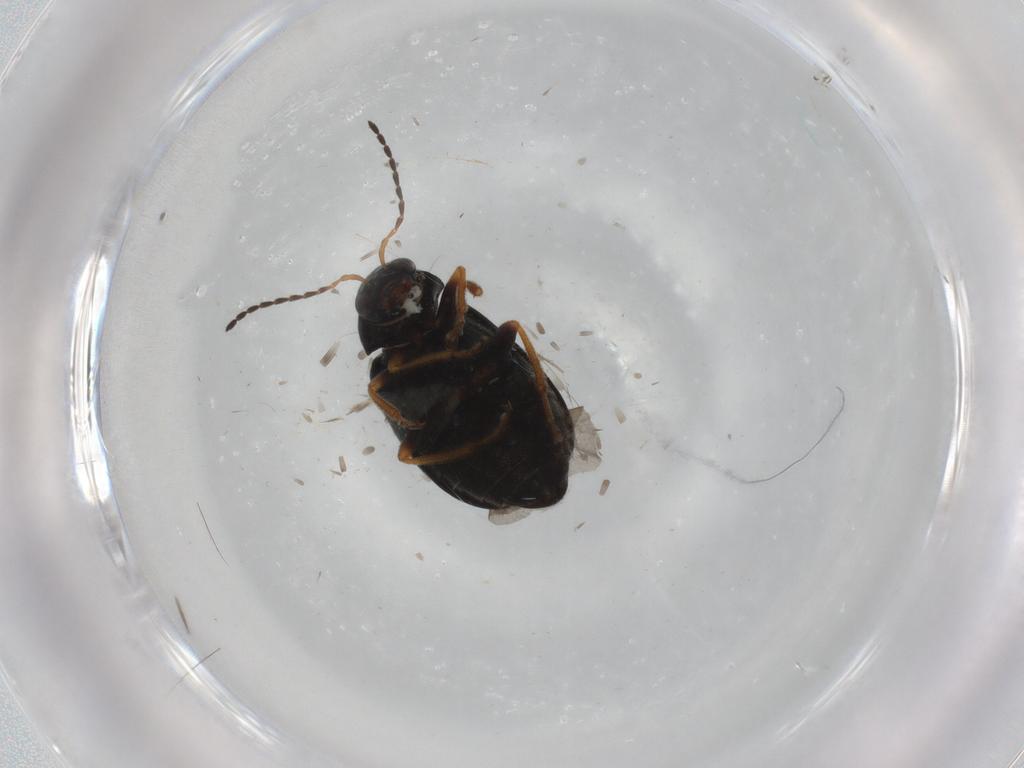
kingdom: Animalia
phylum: Arthropoda
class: Insecta
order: Coleoptera
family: Chrysomelidae
